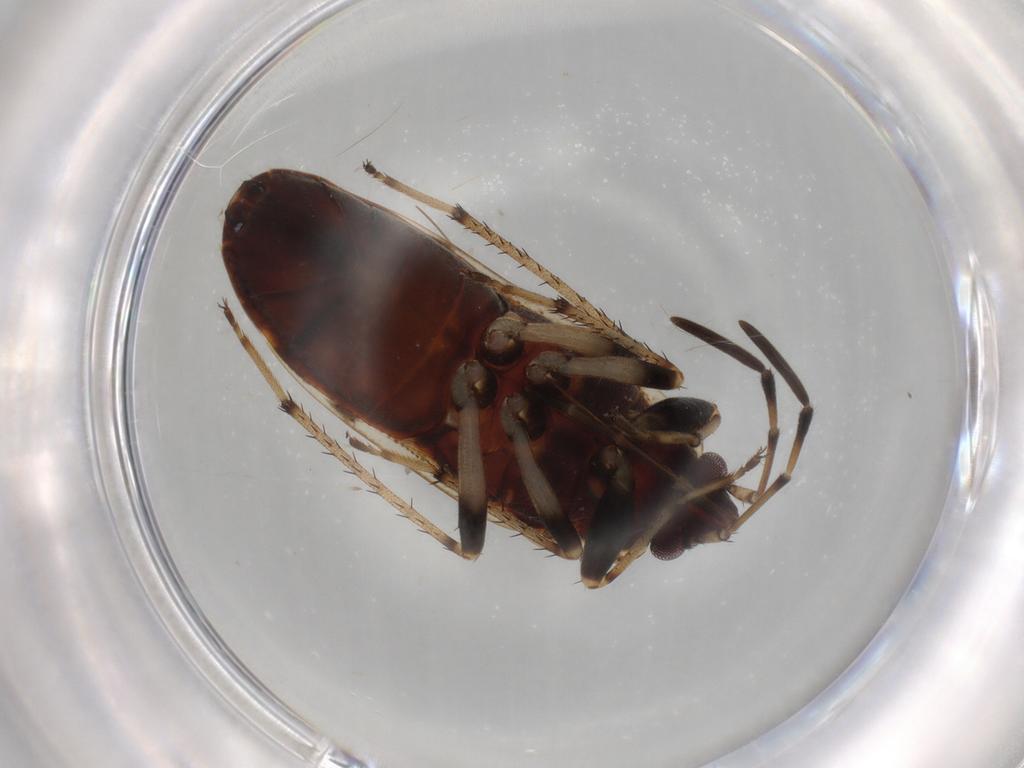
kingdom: Animalia
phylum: Arthropoda
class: Insecta
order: Hemiptera
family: Rhyparochromidae
